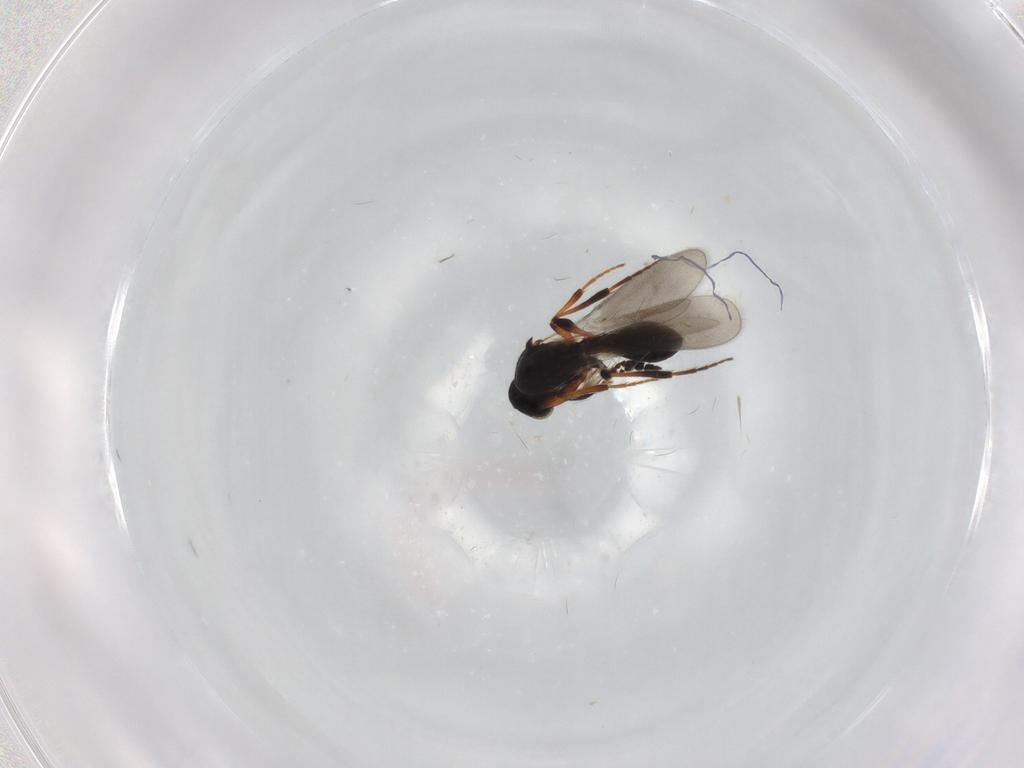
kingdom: Animalia
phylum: Arthropoda
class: Insecta
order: Hymenoptera
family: Platygastridae
